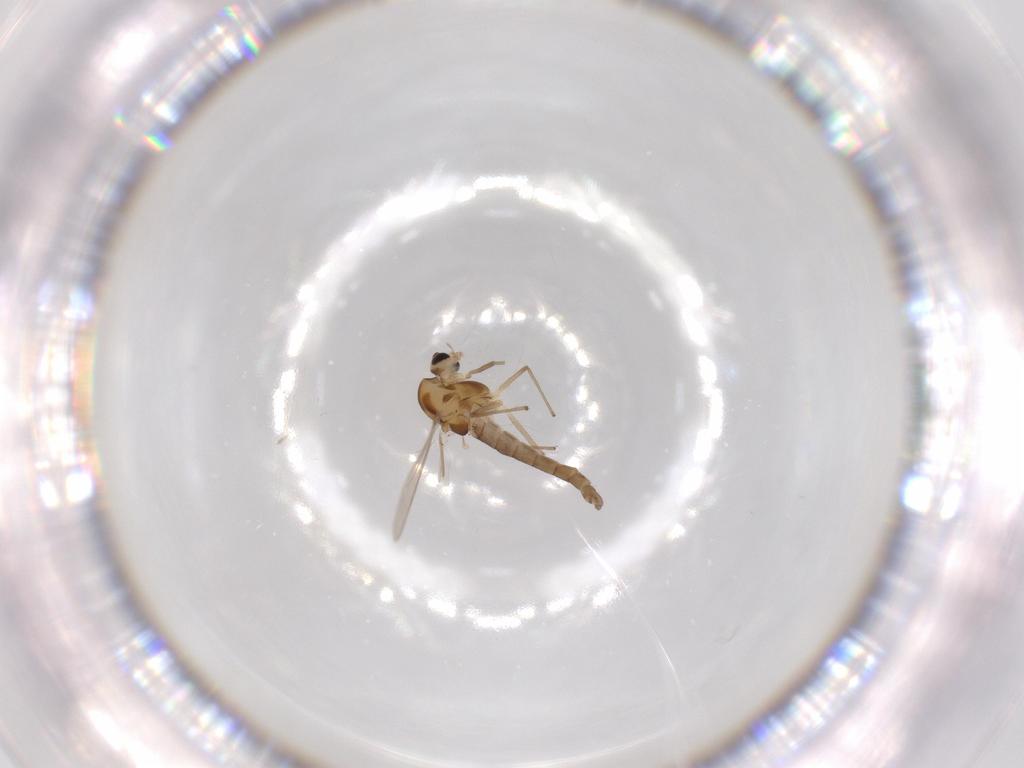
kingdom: Animalia
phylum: Arthropoda
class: Insecta
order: Diptera
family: Chironomidae
